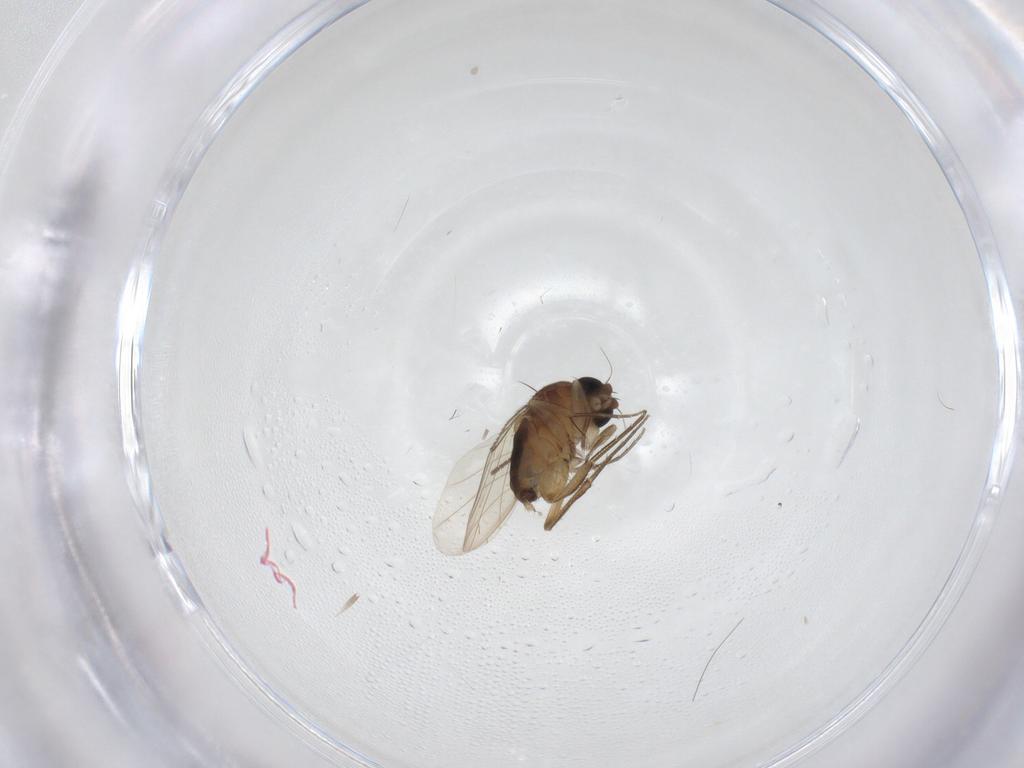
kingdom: Animalia
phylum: Arthropoda
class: Insecta
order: Diptera
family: Phoridae
